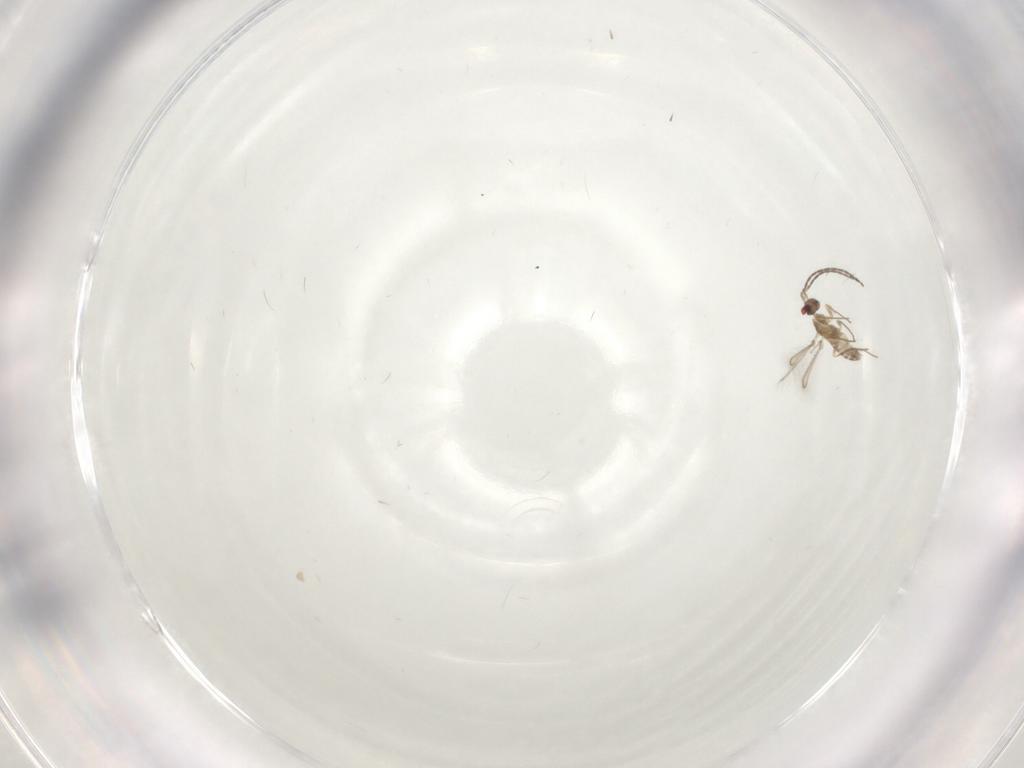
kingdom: Animalia
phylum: Arthropoda
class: Insecta
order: Hymenoptera
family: Mymaridae
